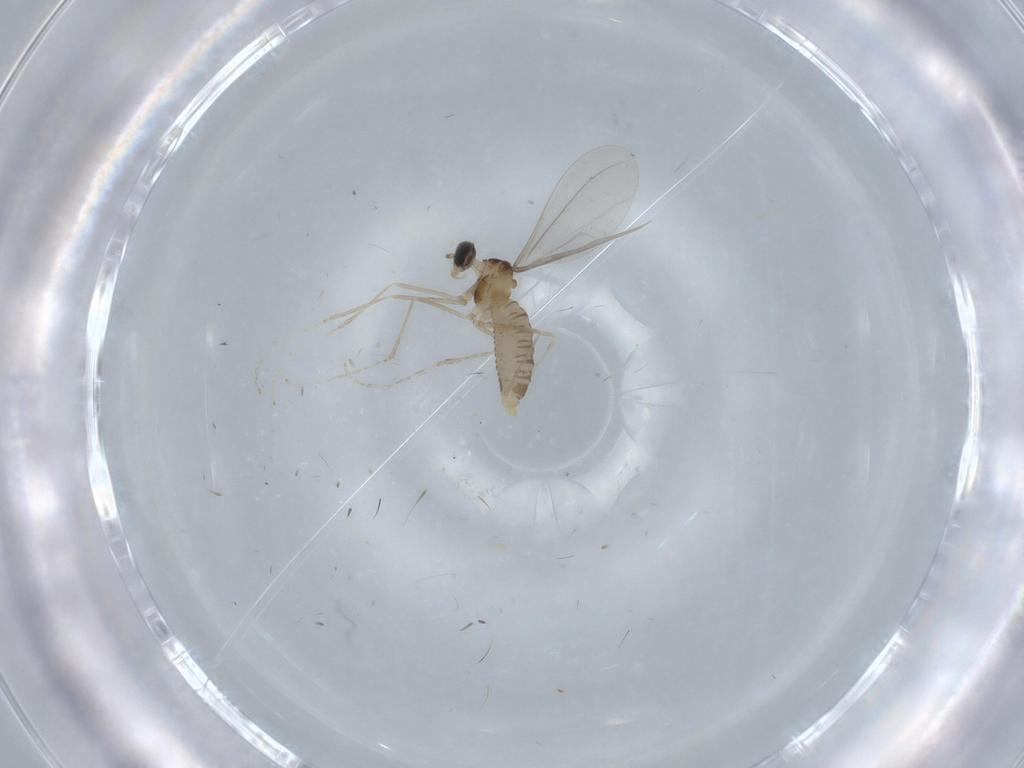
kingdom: Animalia
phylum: Arthropoda
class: Insecta
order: Diptera
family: Cecidomyiidae
